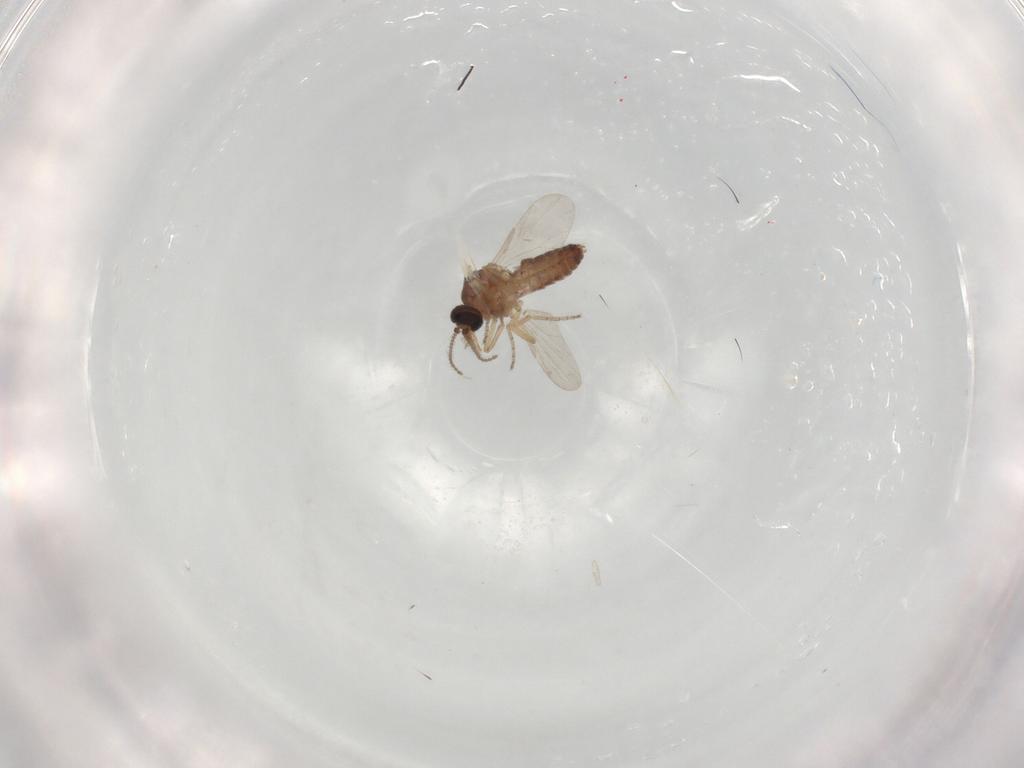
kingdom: Animalia
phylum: Arthropoda
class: Insecta
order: Diptera
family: Ceratopogonidae
